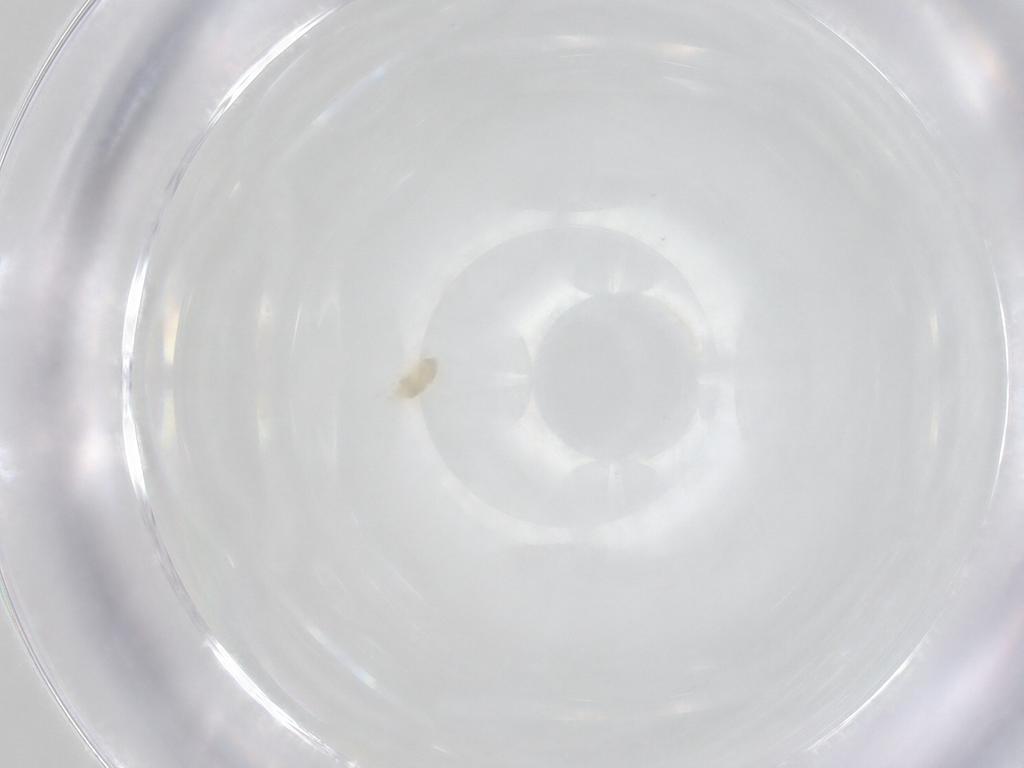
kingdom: Animalia
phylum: Arthropoda
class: Arachnida
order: Trombidiformes
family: Eupodidae
